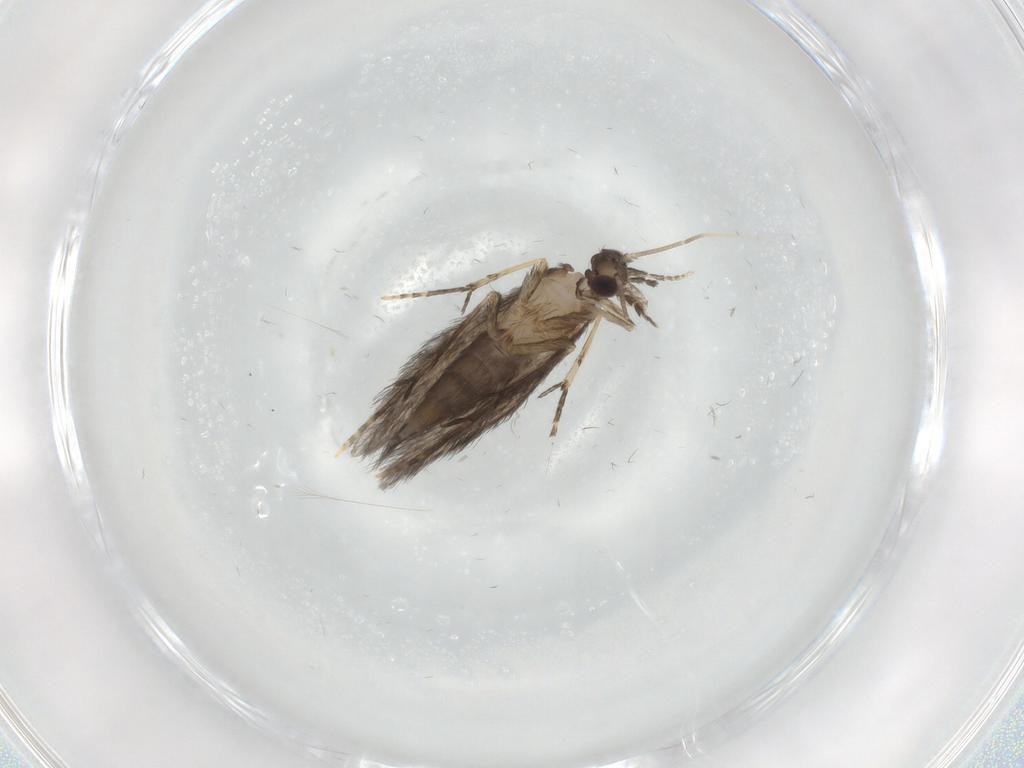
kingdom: Animalia
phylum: Arthropoda
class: Insecta
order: Trichoptera
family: Hydroptilidae
